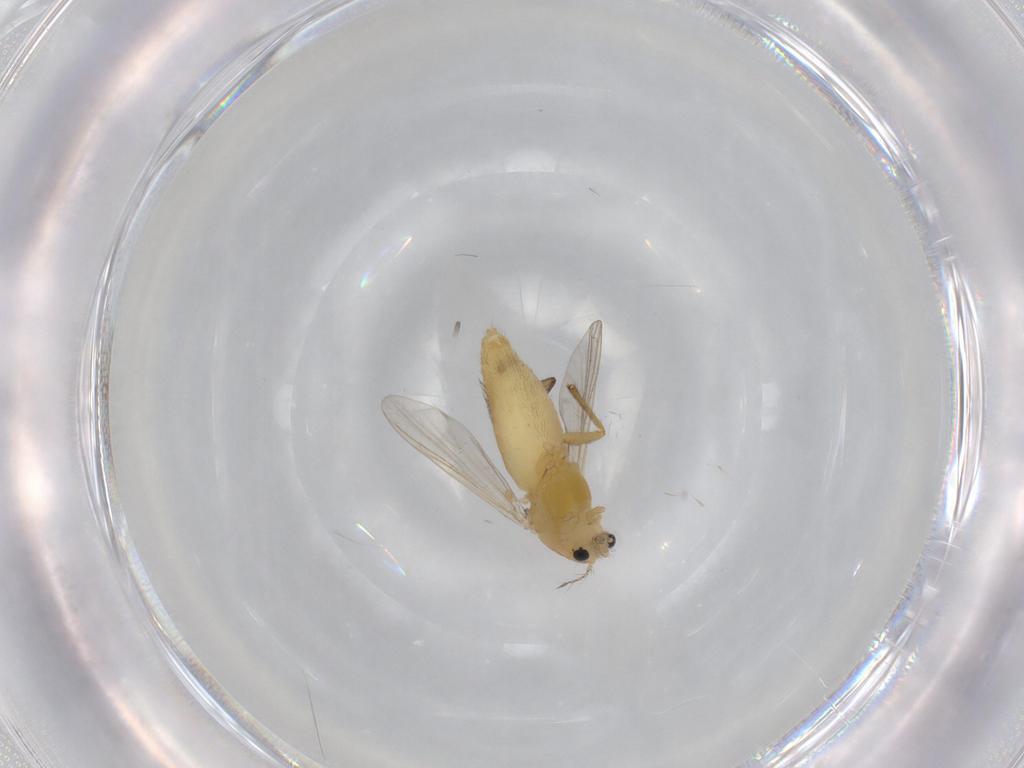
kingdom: Animalia
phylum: Arthropoda
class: Insecta
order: Diptera
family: Chironomidae
